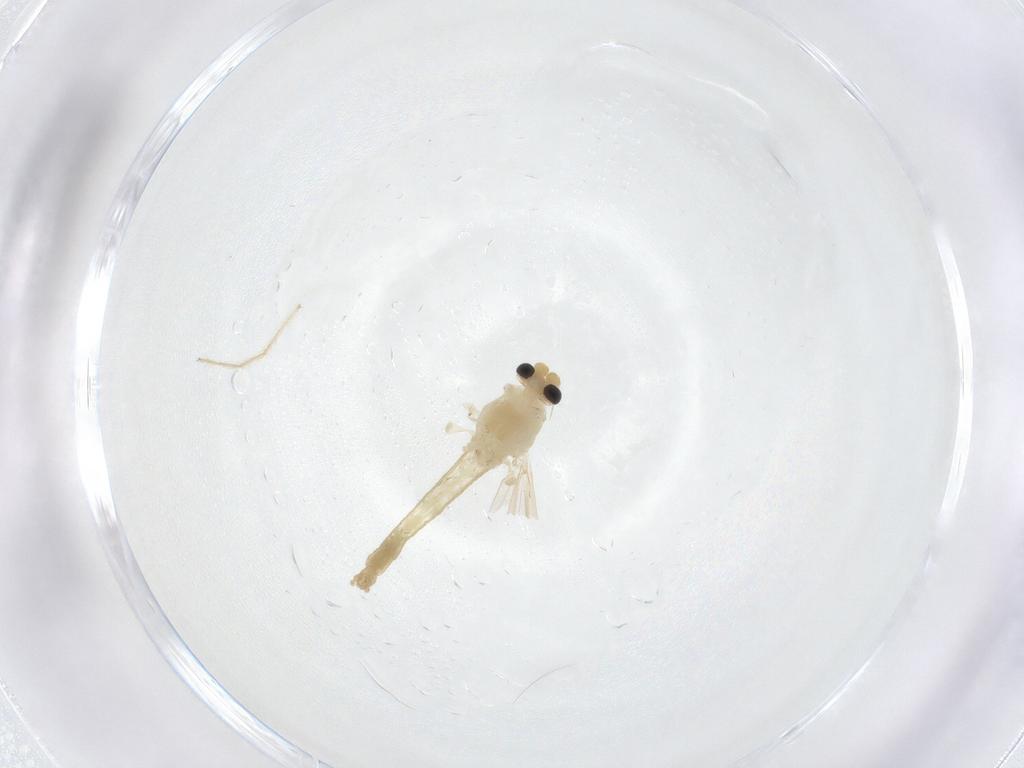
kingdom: Animalia
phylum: Arthropoda
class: Insecta
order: Diptera
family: Chironomidae
